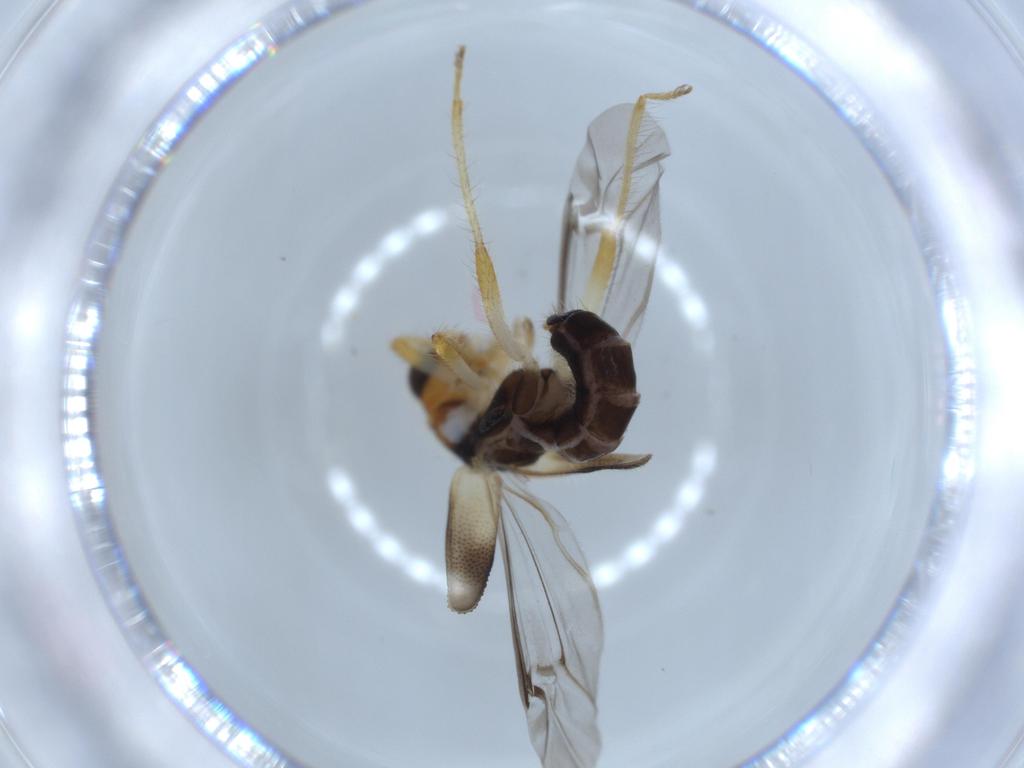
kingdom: Animalia
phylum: Arthropoda
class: Insecta
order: Coleoptera
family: Cleridae
